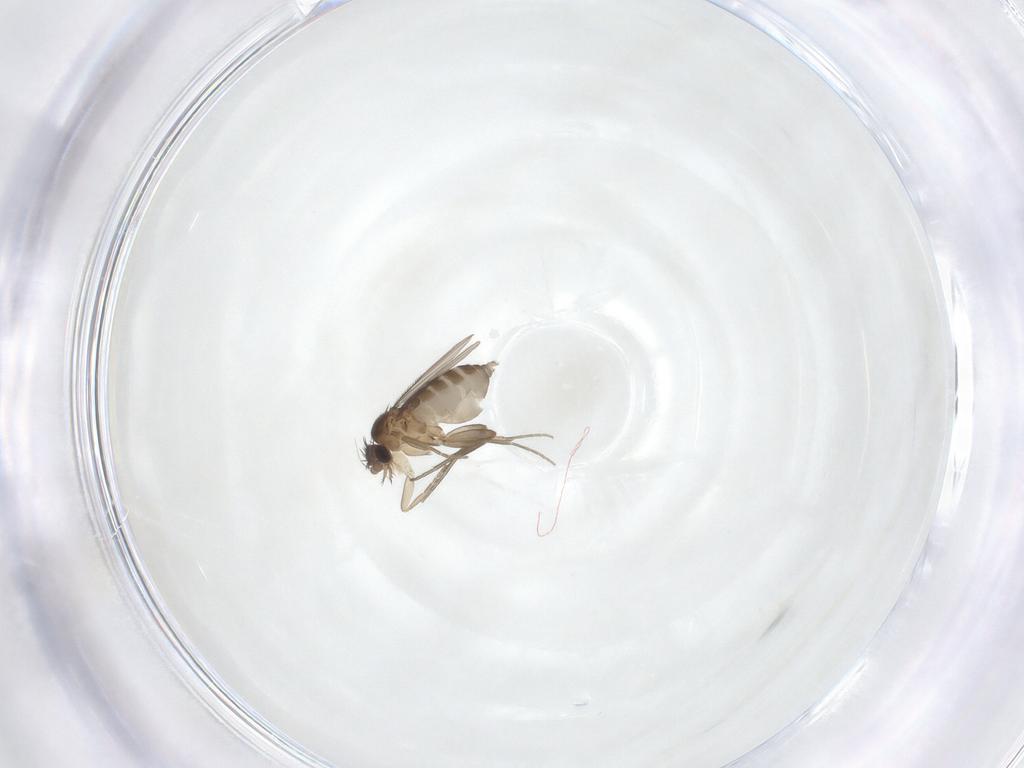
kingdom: Animalia
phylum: Arthropoda
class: Insecta
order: Diptera
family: Phoridae
